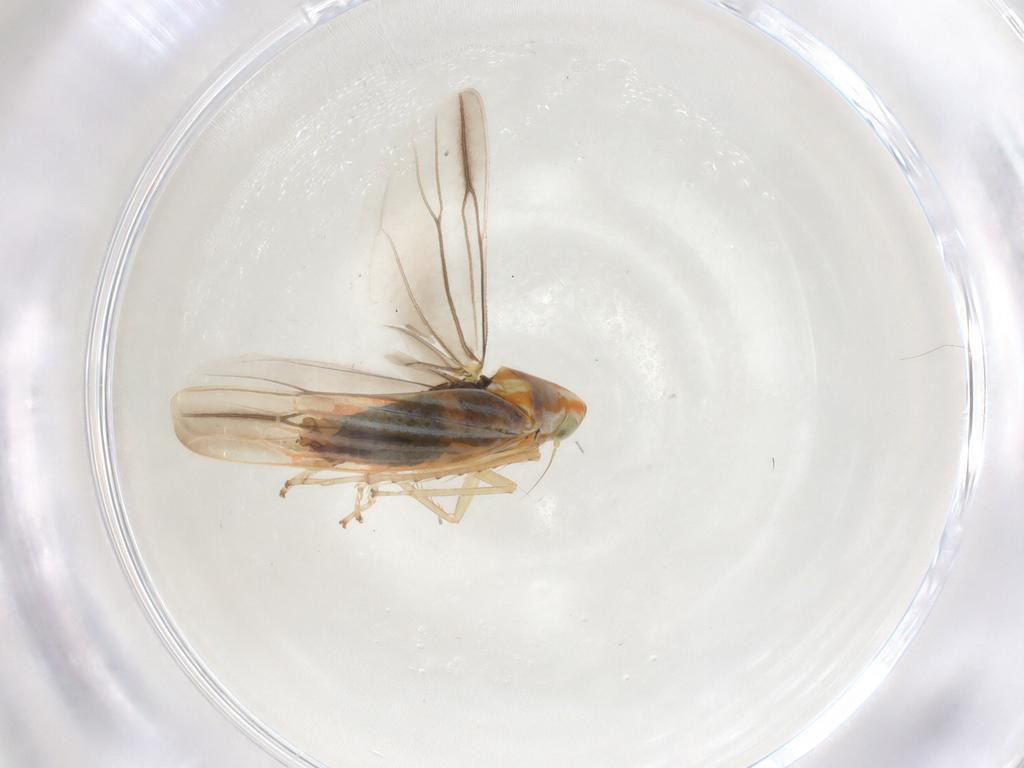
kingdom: Animalia
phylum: Arthropoda
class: Insecta
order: Hemiptera
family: Cicadellidae
